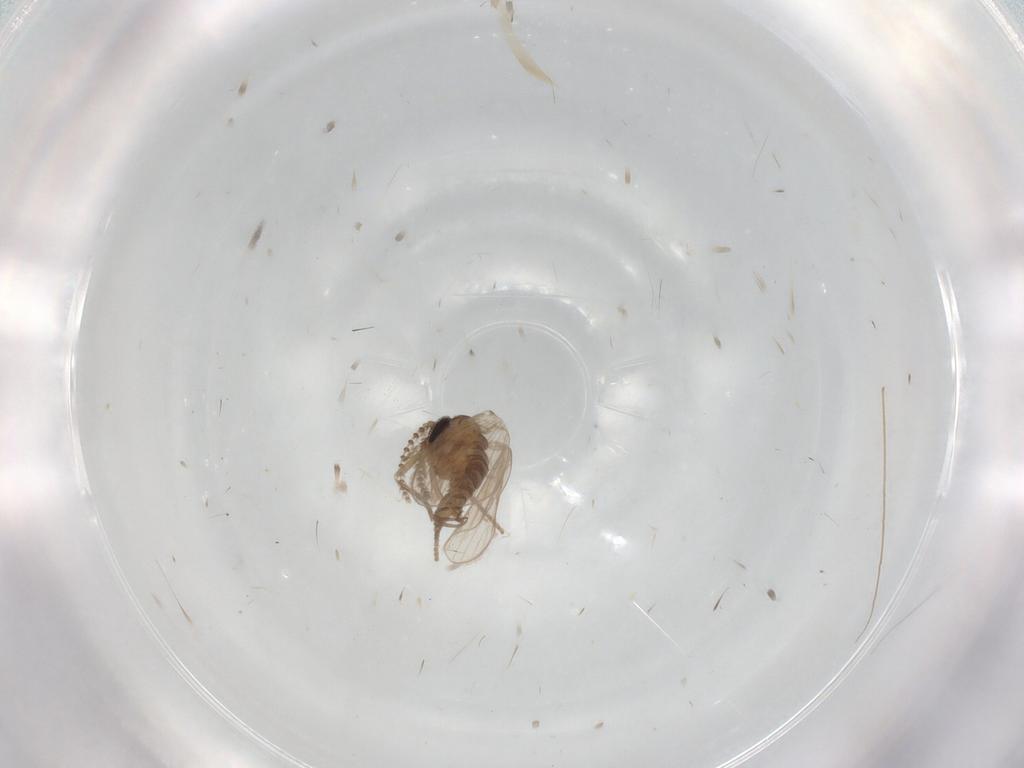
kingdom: Animalia
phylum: Arthropoda
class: Insecta
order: Diptera
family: Psychodidae
